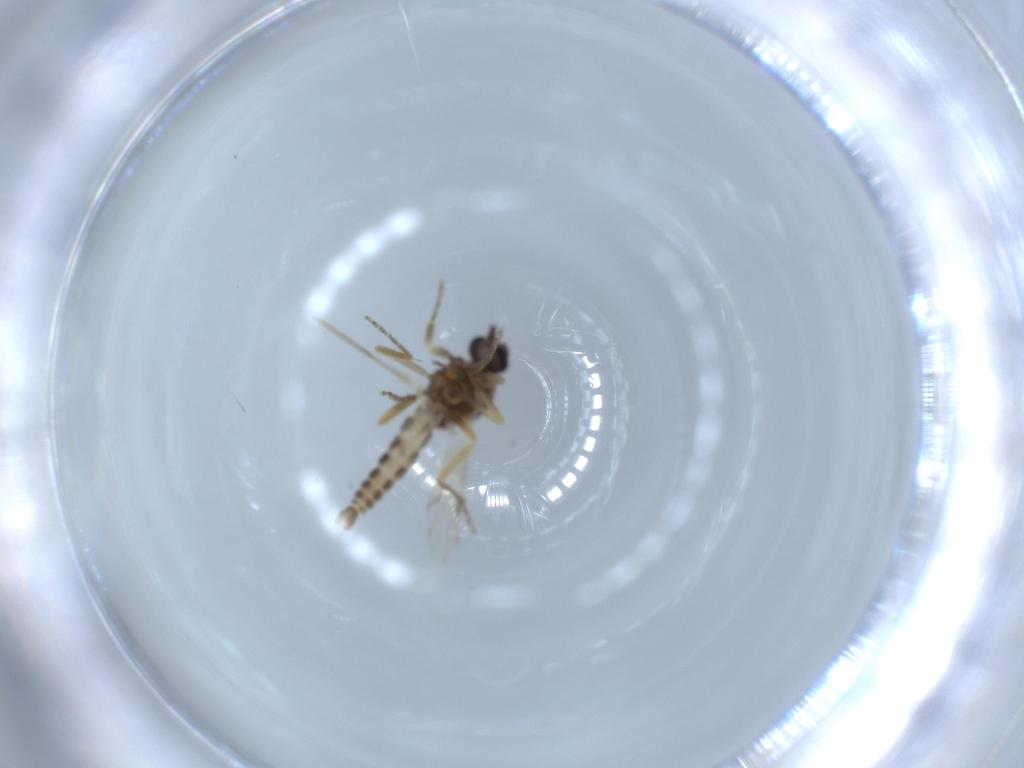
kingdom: Animalia
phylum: Arthropoda
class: Insecta
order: Diptera
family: Ceratopogonidae
